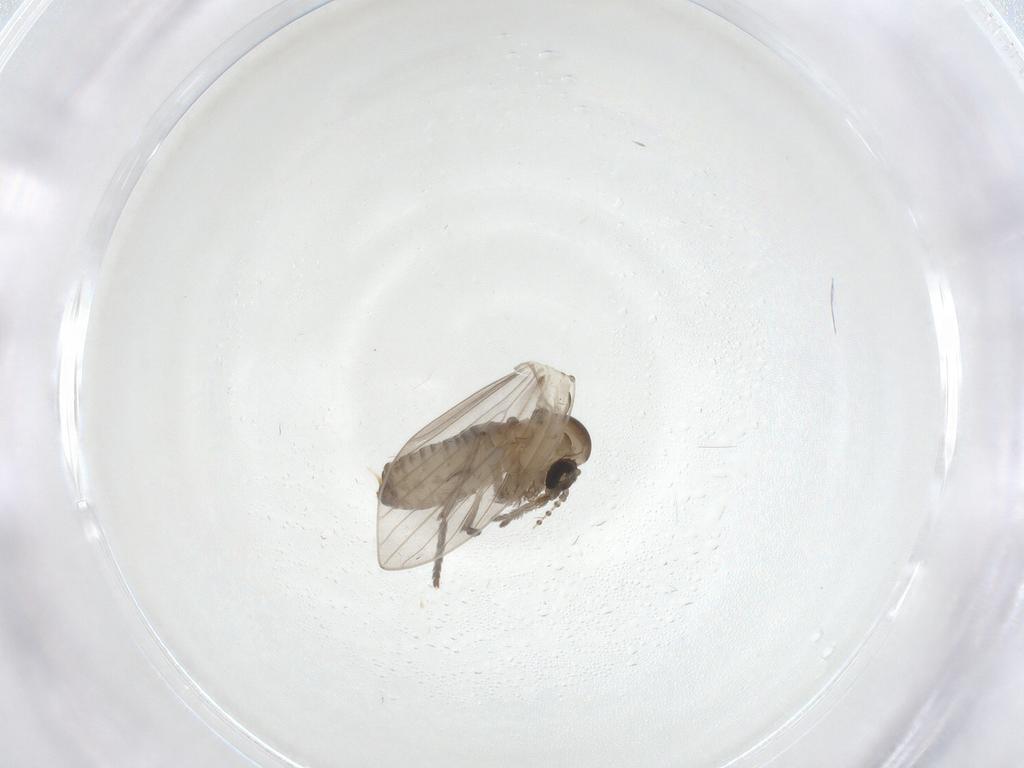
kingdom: Animalia
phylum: Arthropoda
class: Insecta
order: Diptera
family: Psychodidae
